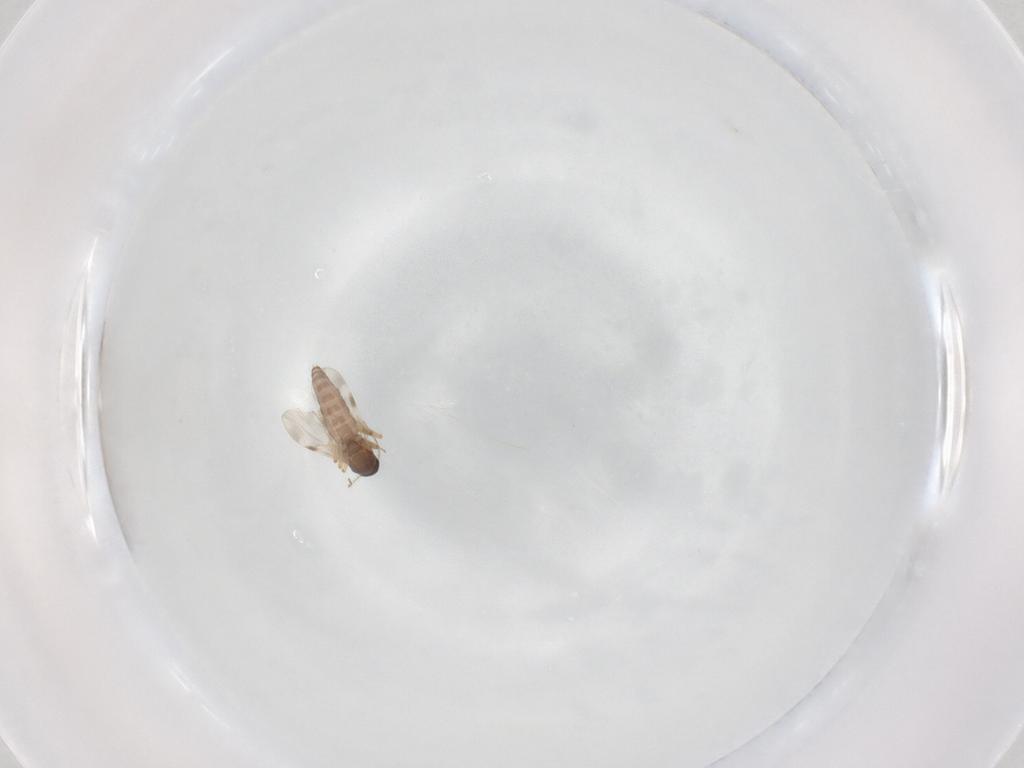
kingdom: Animalia
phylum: Arthropoda
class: Insecta
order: Diptera
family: Ceratopogonidae
